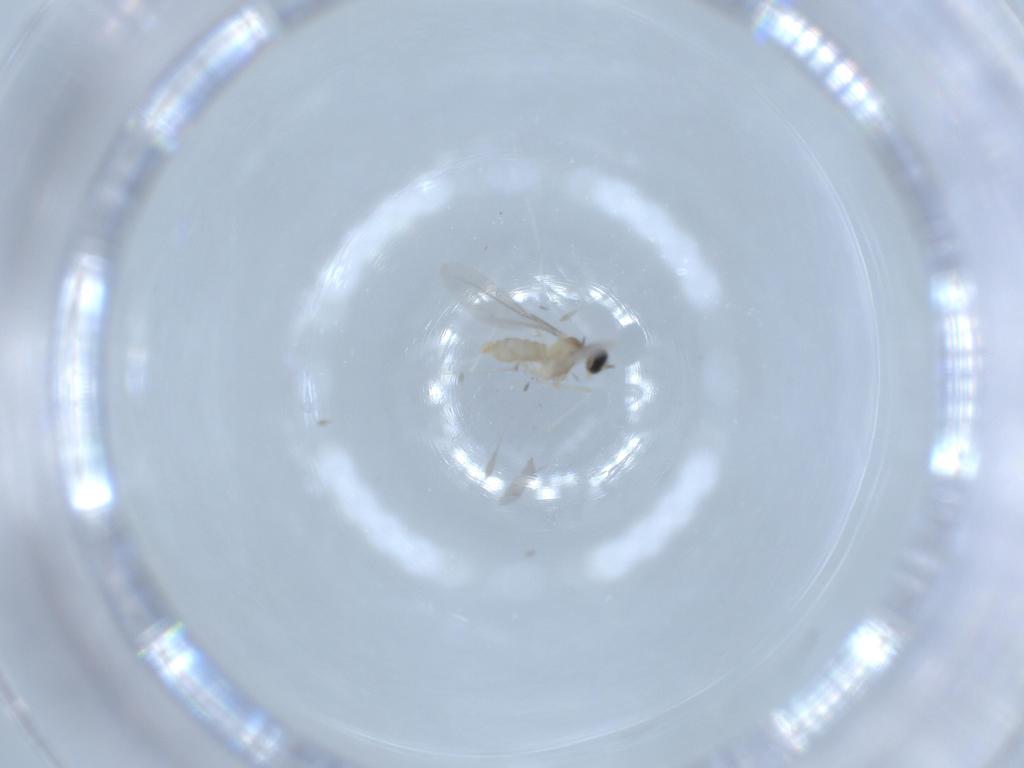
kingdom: Animalia
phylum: Arthropoda
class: Insecta
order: Diptera
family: Cecidomyiidae
